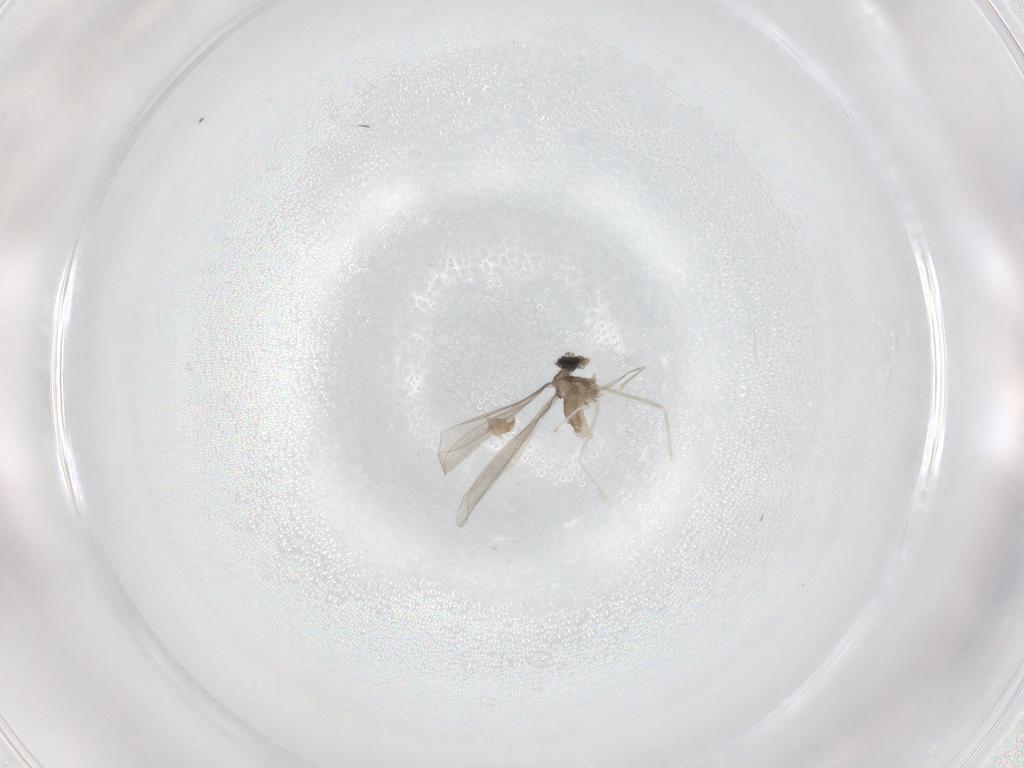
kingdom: Animalia
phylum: Arthropoda
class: Insecta
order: Diptera
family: Cecidomyiidae
